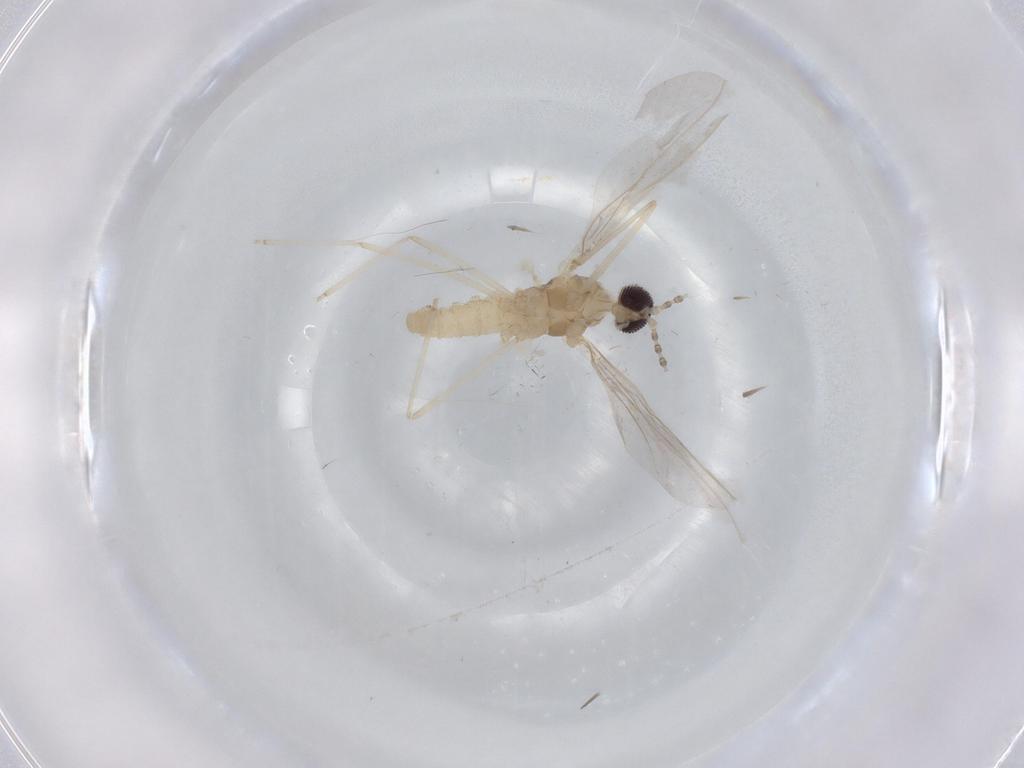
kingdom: Animalia
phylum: Arthropoda
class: Insecta
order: Diptera
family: Cecidomyiidae
